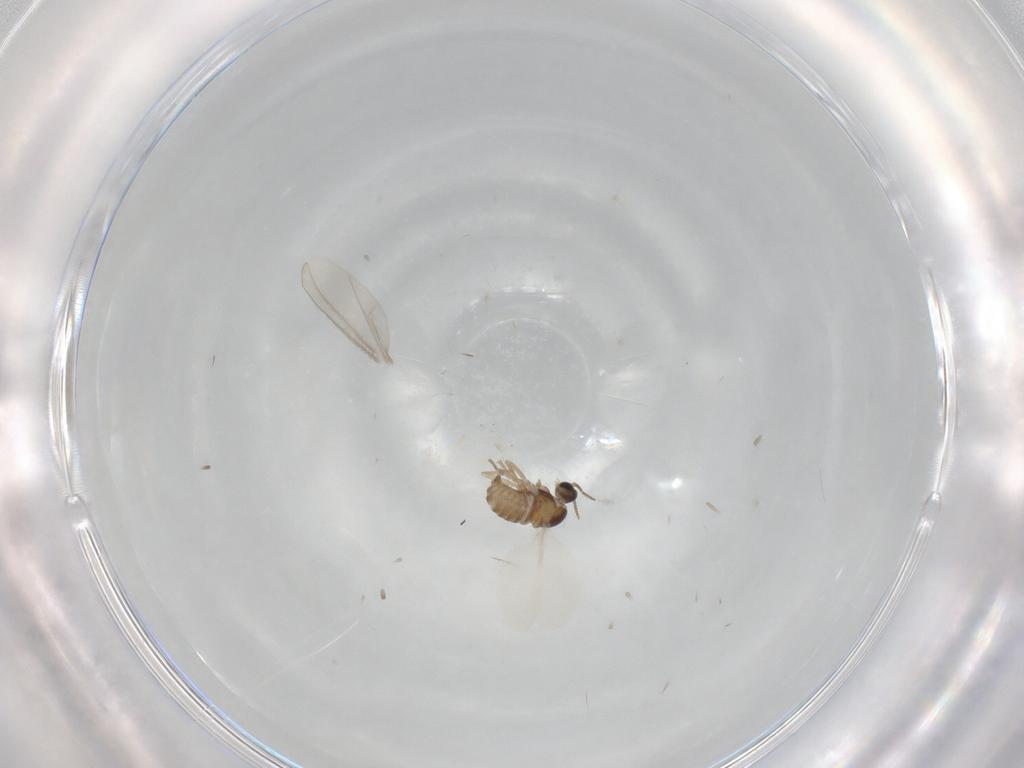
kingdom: Animalia
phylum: Arthropoda
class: Insecta
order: Diptera
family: Cecidomyiidae
